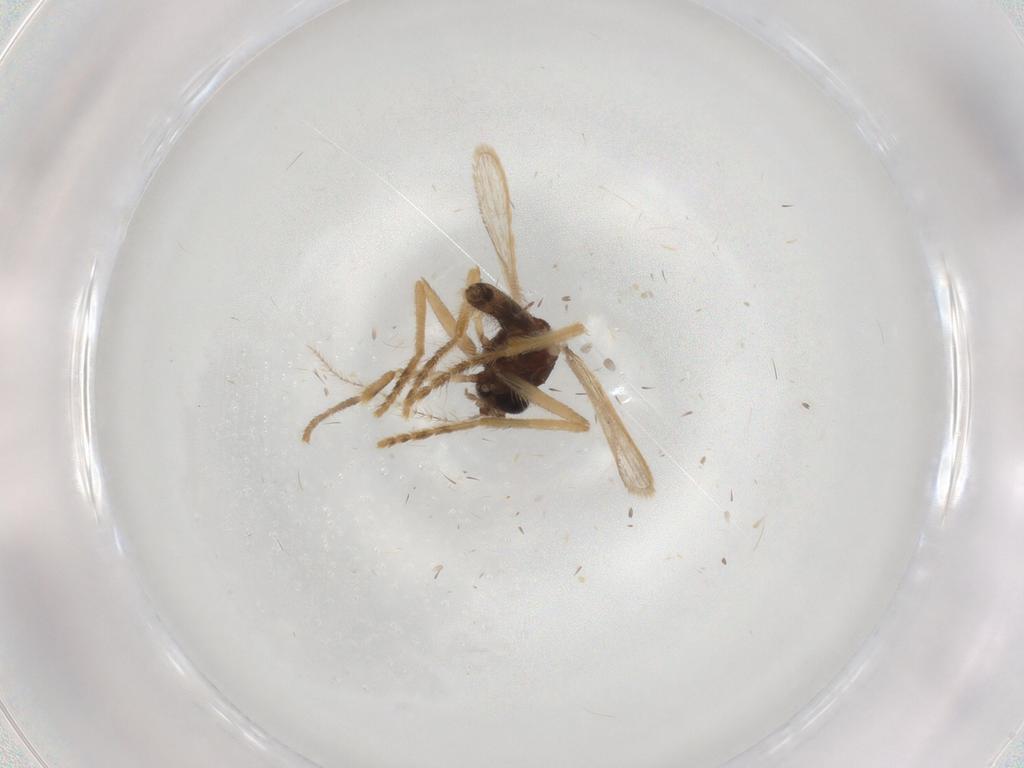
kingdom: Animalia
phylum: Arthropoda
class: Insecta
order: Diptera
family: Corethrellidae
